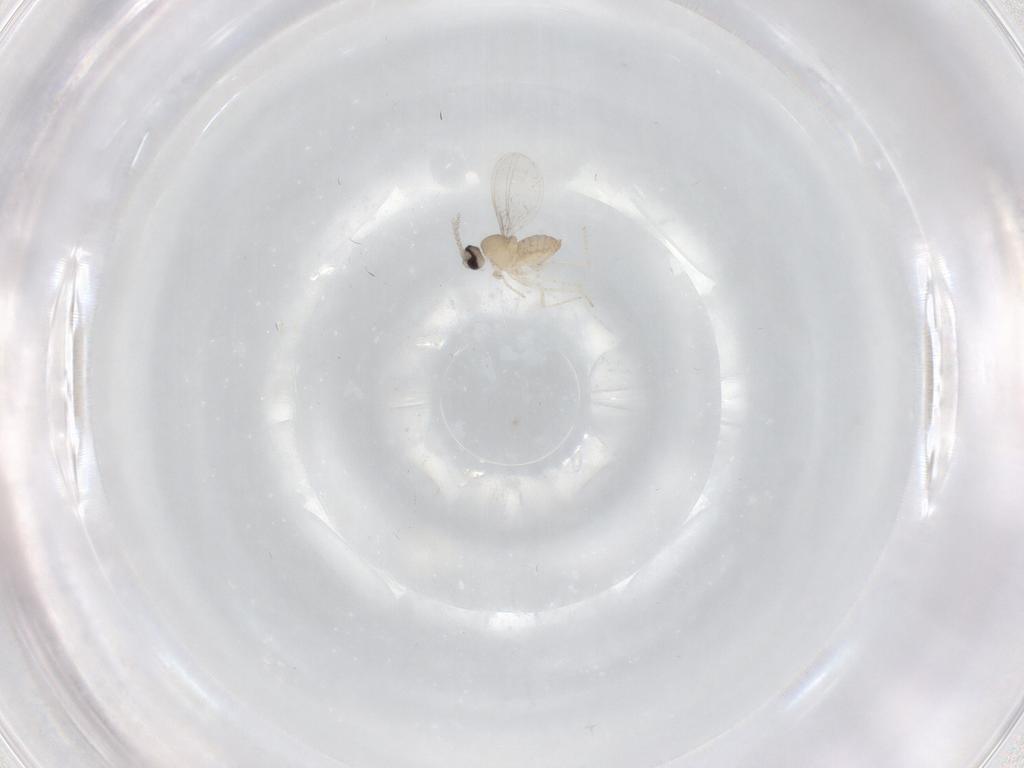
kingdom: Animalia
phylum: Arthropoda
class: Insecta
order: Diptera
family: Cecidomyiidae
